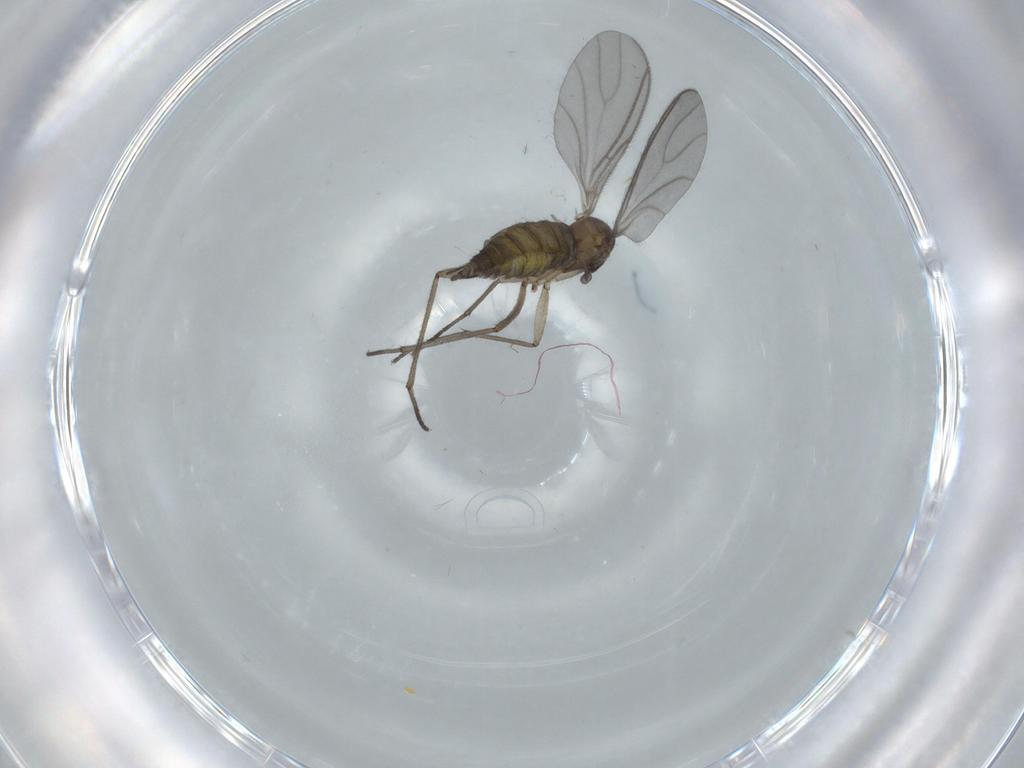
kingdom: Animalia
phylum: Arthropoda
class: Insecta
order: Diptera
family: Sciaridae
